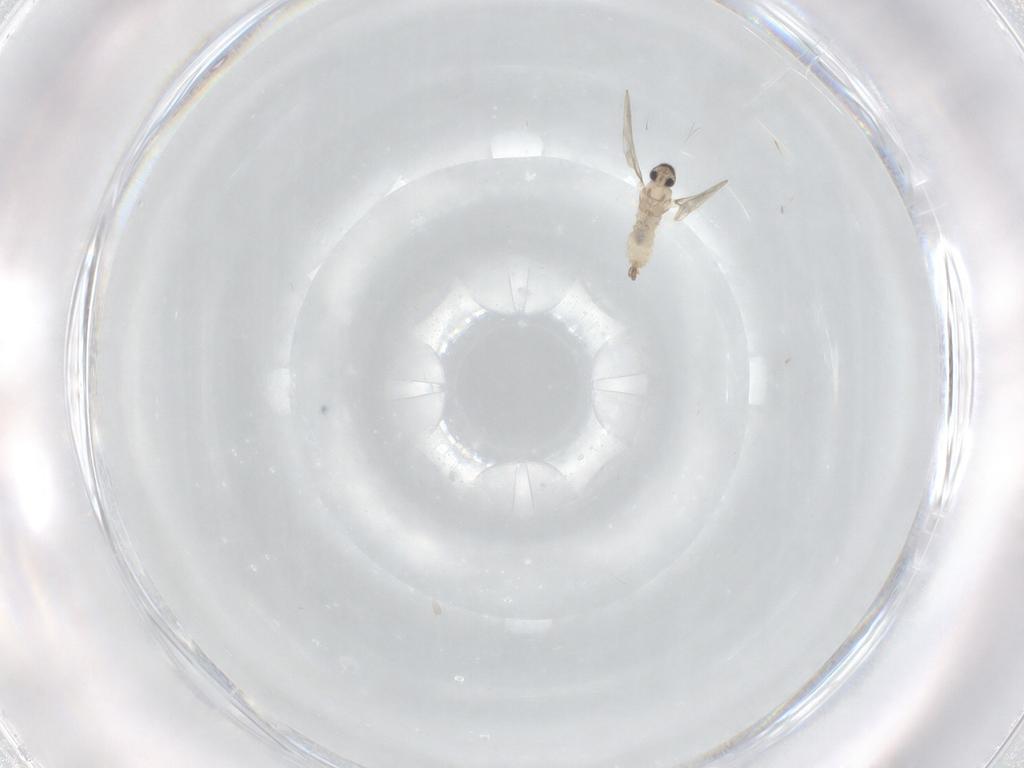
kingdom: Animalia
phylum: Arthropoda
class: Insecta
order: Diptera
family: Cecidomyiidae
